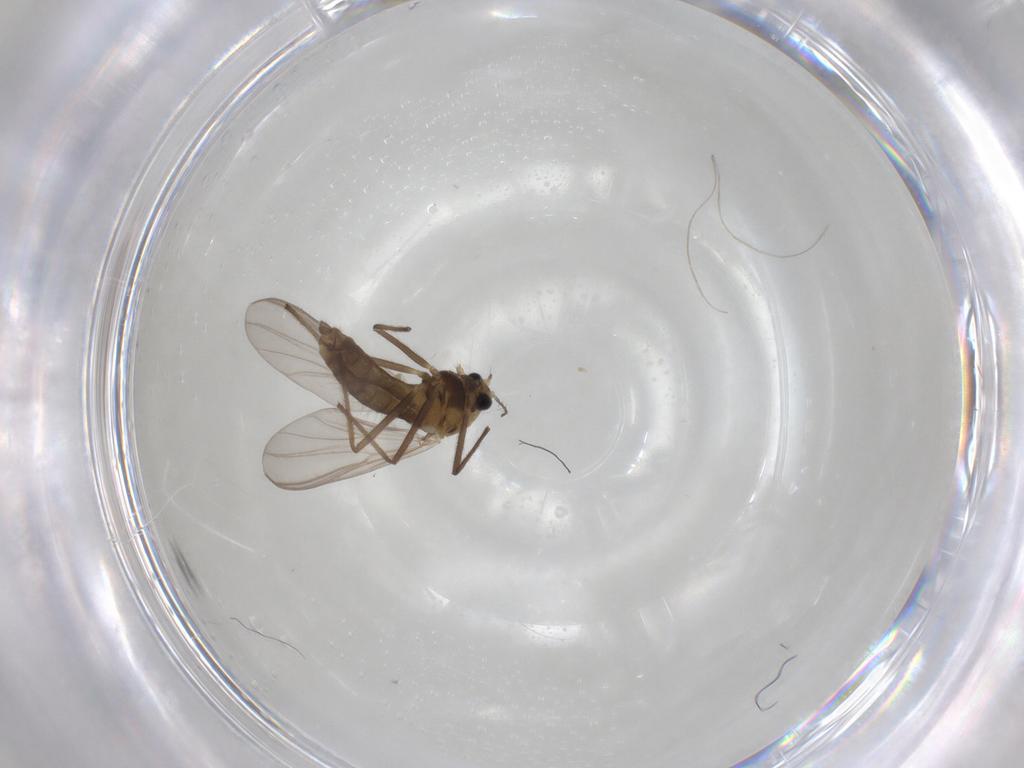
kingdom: Animalia
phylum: Arthropoda
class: Insecta
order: Diptera
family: Chironomidae
